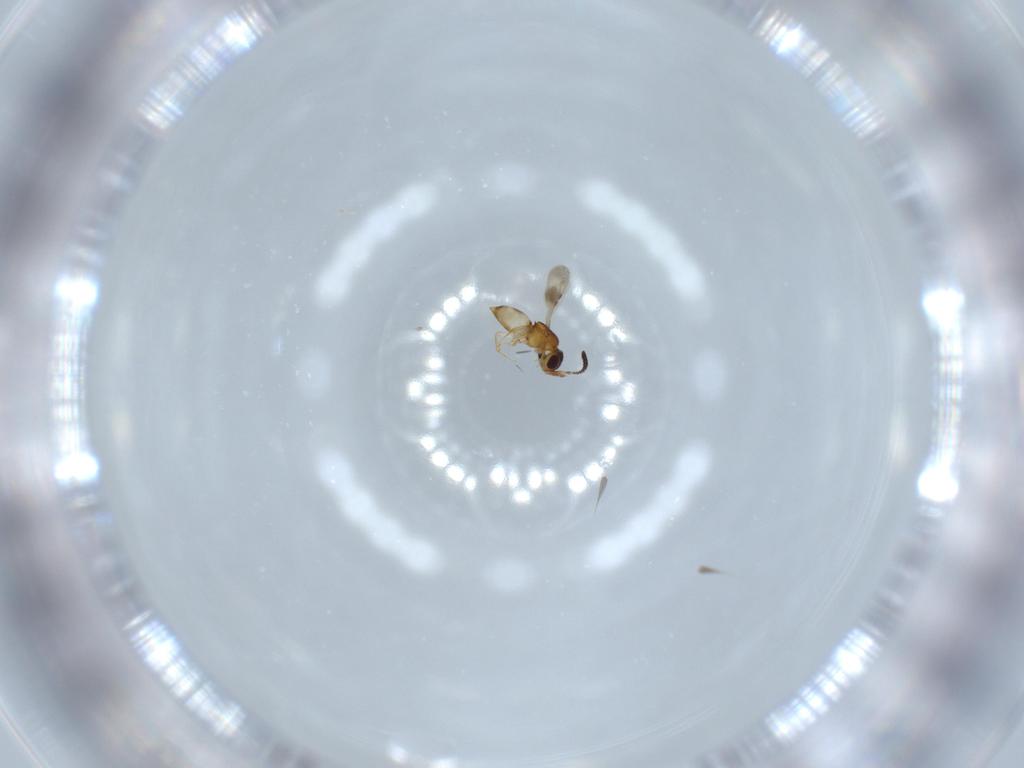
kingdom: Animalia
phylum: Arthropoda
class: Insecta
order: Hymenoptera
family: Ceraphronidae
